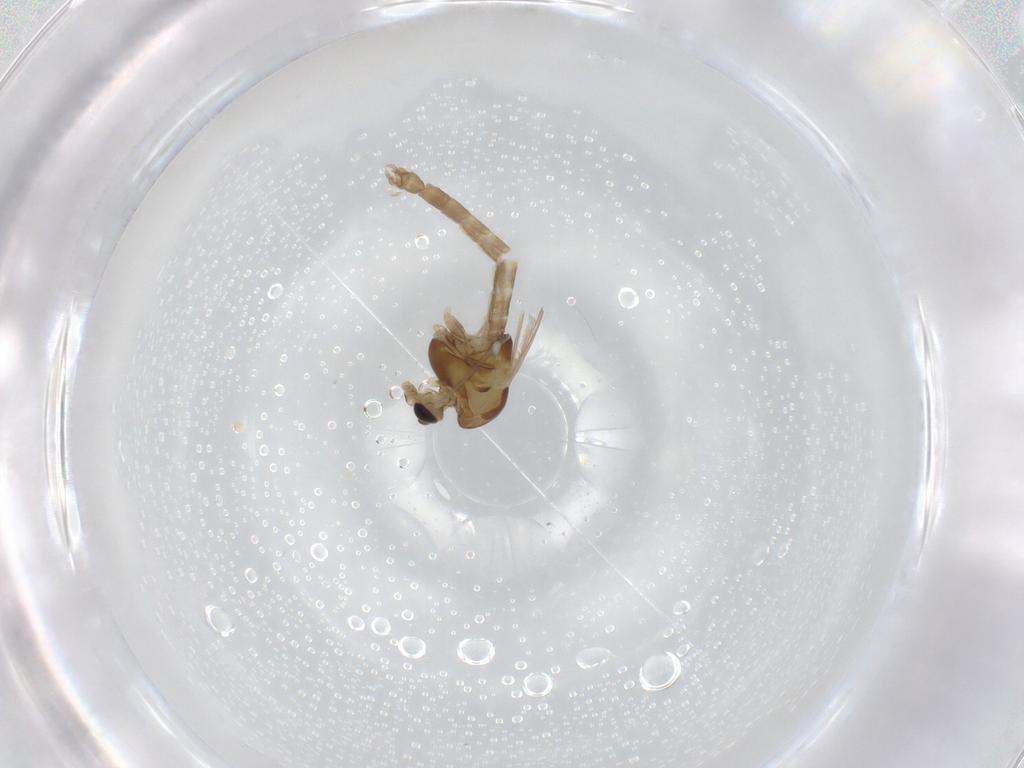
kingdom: Animalia
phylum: Arthropoda
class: Insecta
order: Diptera
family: Chironomidae
